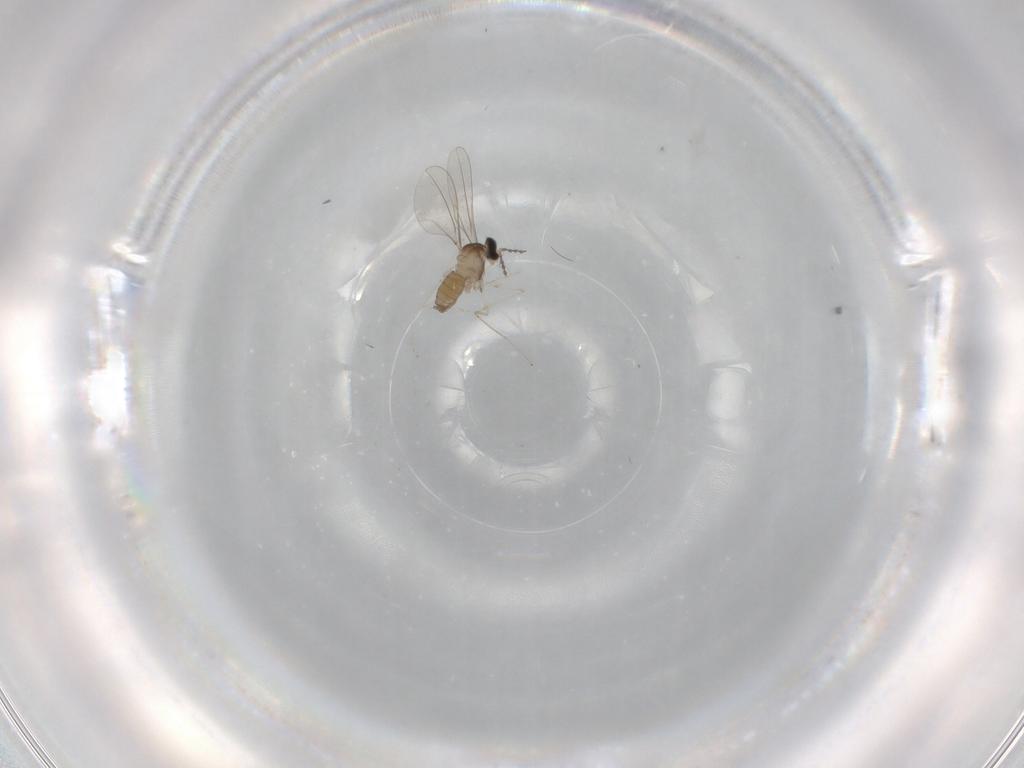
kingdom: Animalia
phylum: Arthropoda
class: Insecta
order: Diptera
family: Cecidomyiidae
